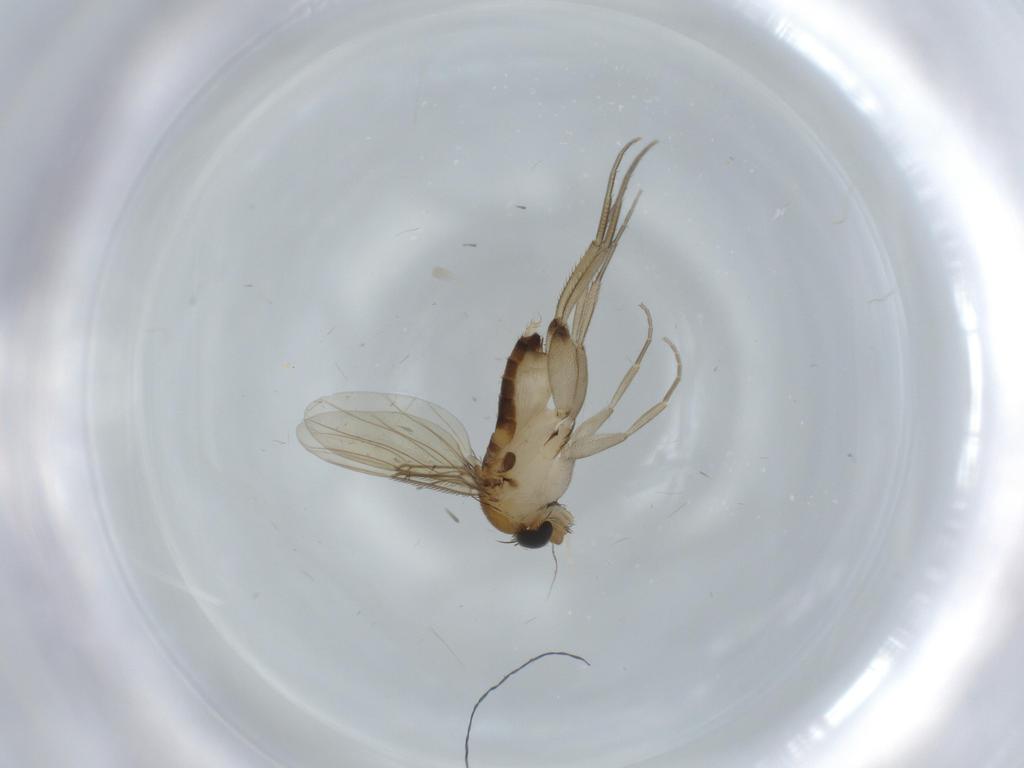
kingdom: Animalia
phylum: Arthropoda
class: Insecta
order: Diptera
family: Phoridae
